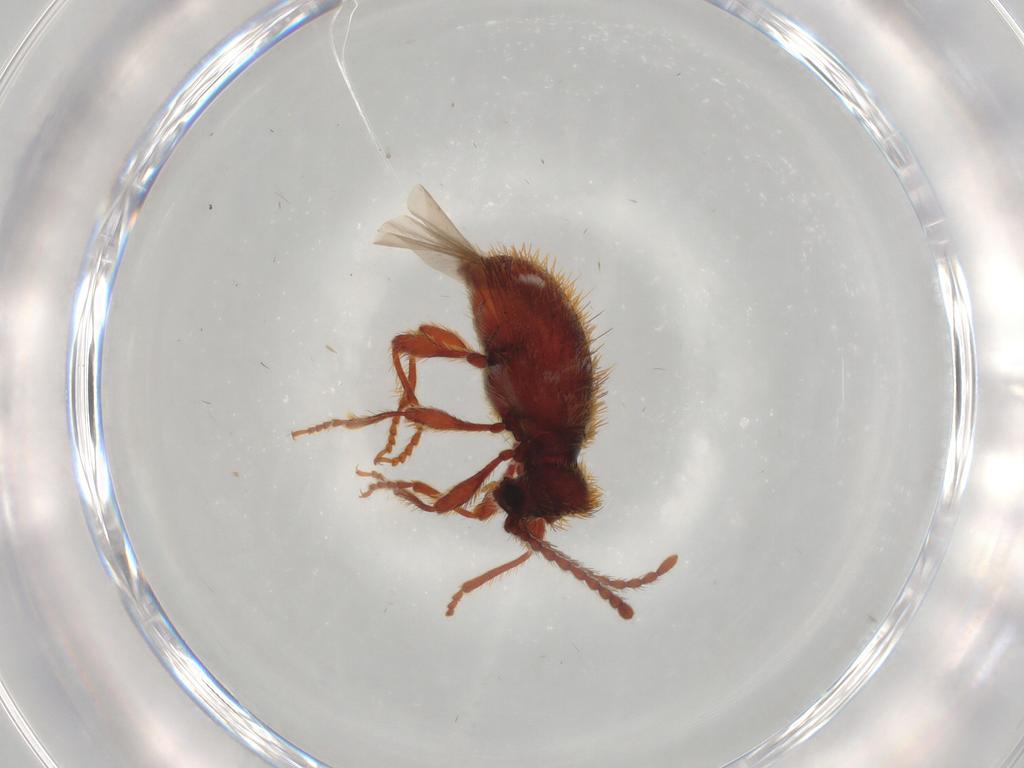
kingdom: Animalia
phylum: Arthropoda
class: Insecta
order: Coleoptera
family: Ptinidae
